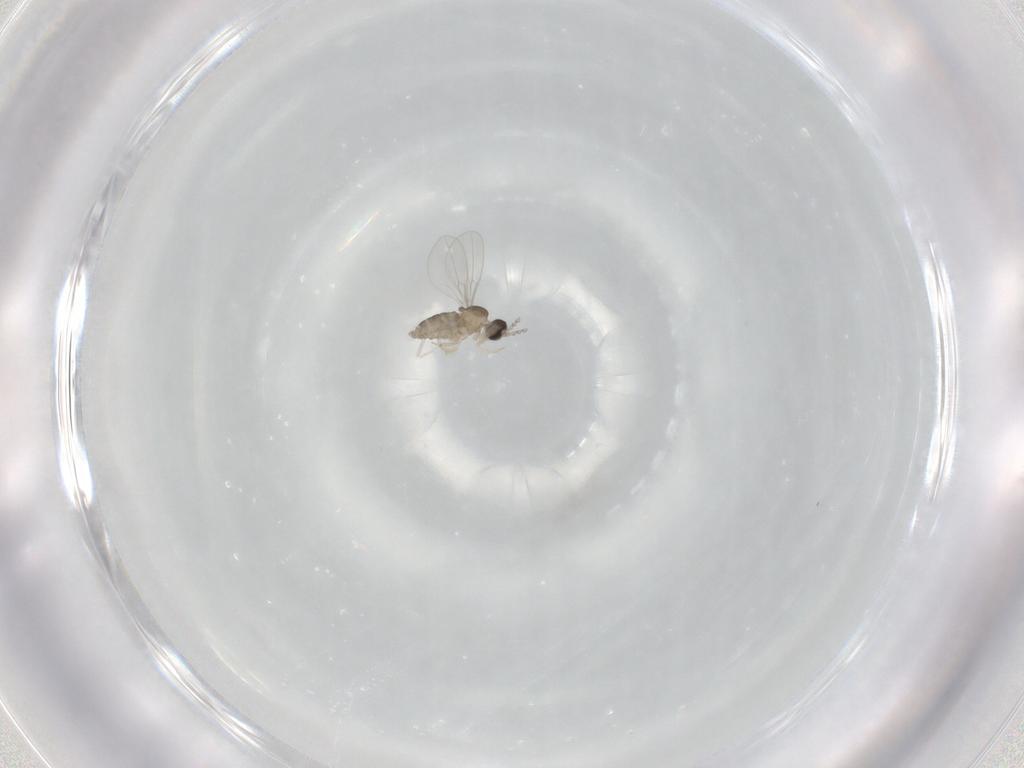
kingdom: Animalia
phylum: Arthropoda
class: Insecta
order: Diptera
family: Cecidomyiidae
